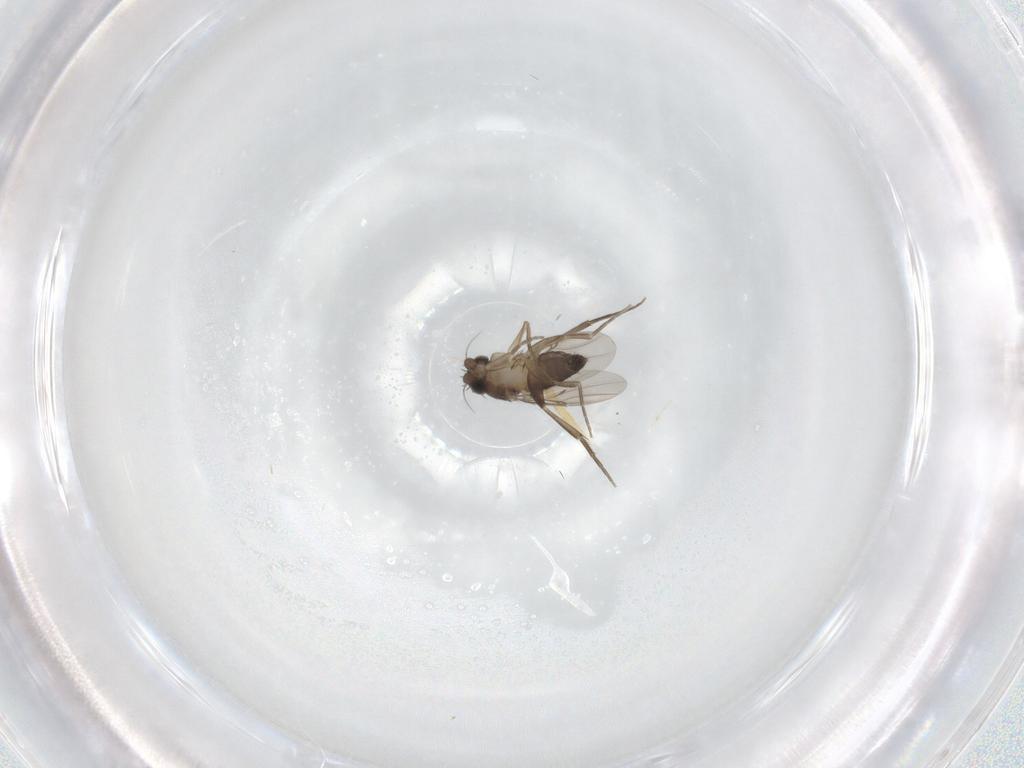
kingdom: Animalia
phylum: Arthropoda
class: Insecta
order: Diptera
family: Phoridae
